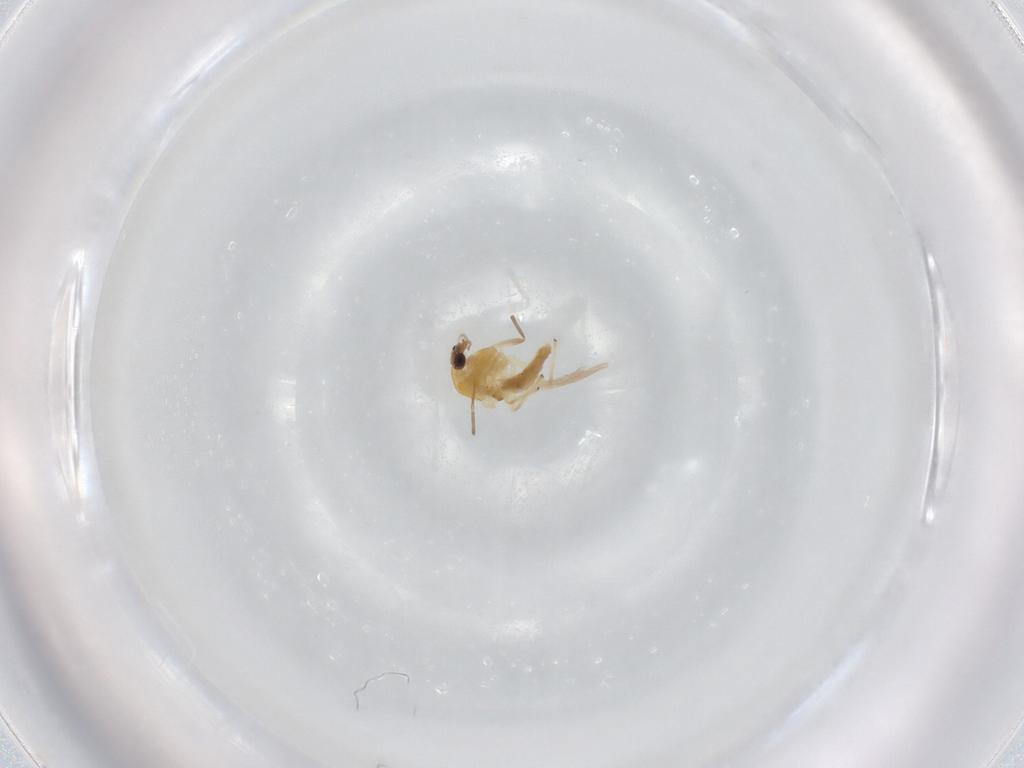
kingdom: Animalia
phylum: Arthropoda
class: Insecta
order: Diptera
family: Glossinidae
